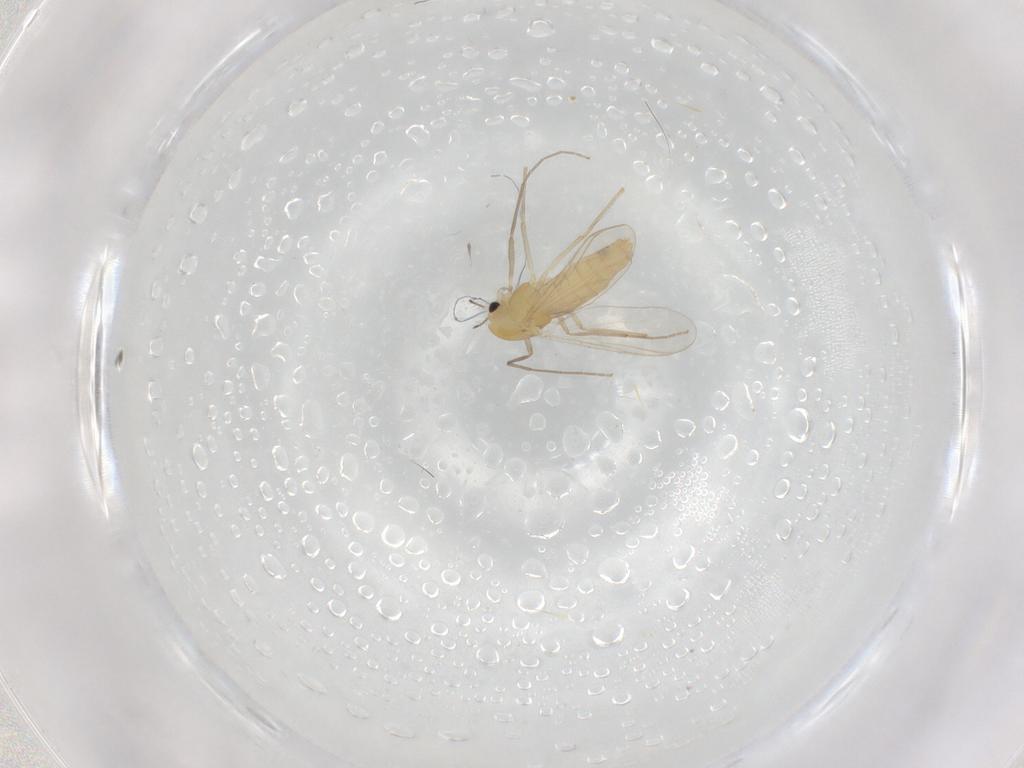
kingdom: Animalia
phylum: Arthropoda
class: Insecta
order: Diptera
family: Chironomidae
